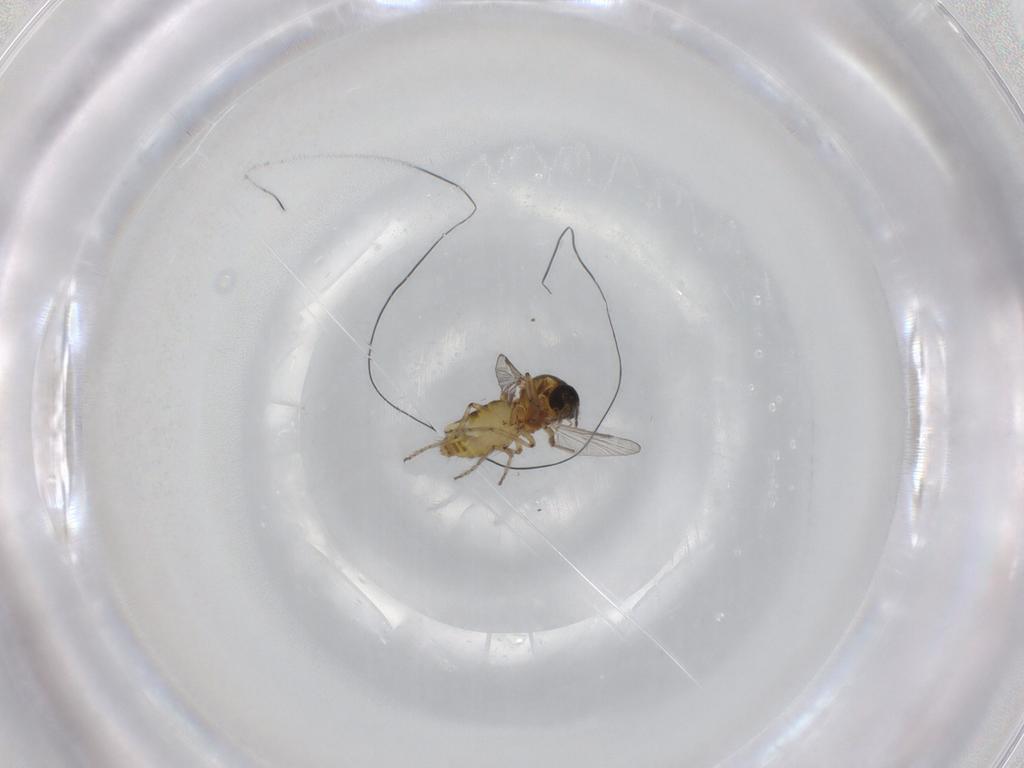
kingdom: Animalia
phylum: Arthropoda
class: Insecta
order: Diptera
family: Ceratopogonidae
